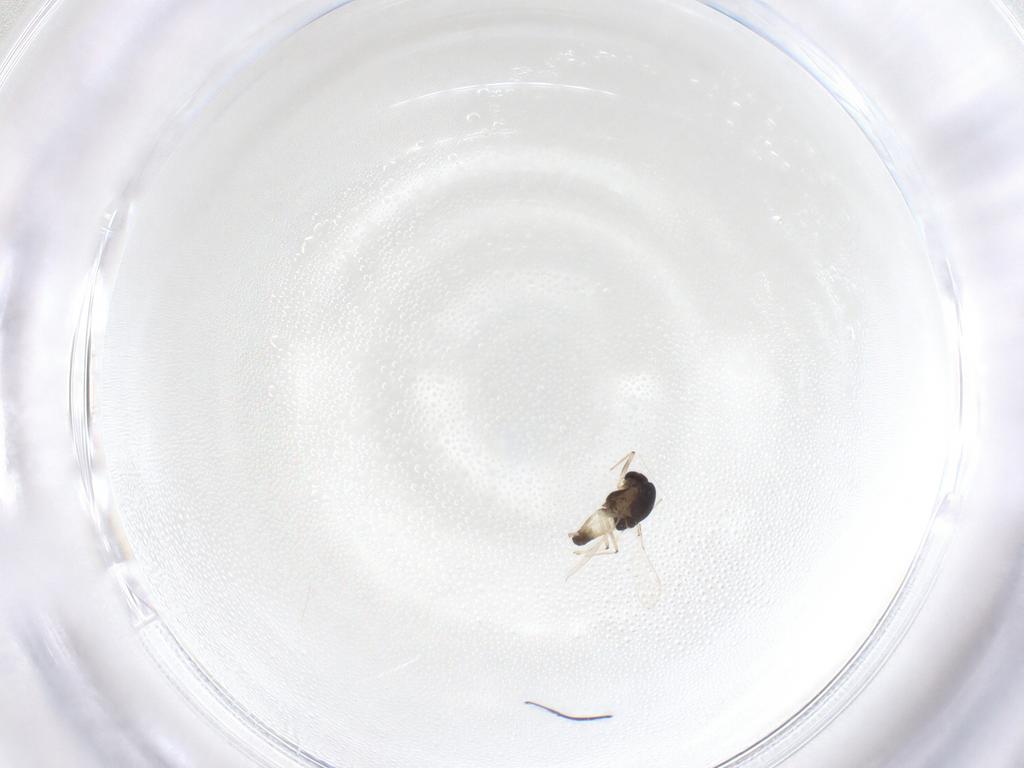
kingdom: Animalia
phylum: Arthropoda
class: Insecta
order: Diptera
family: Chironomidae
